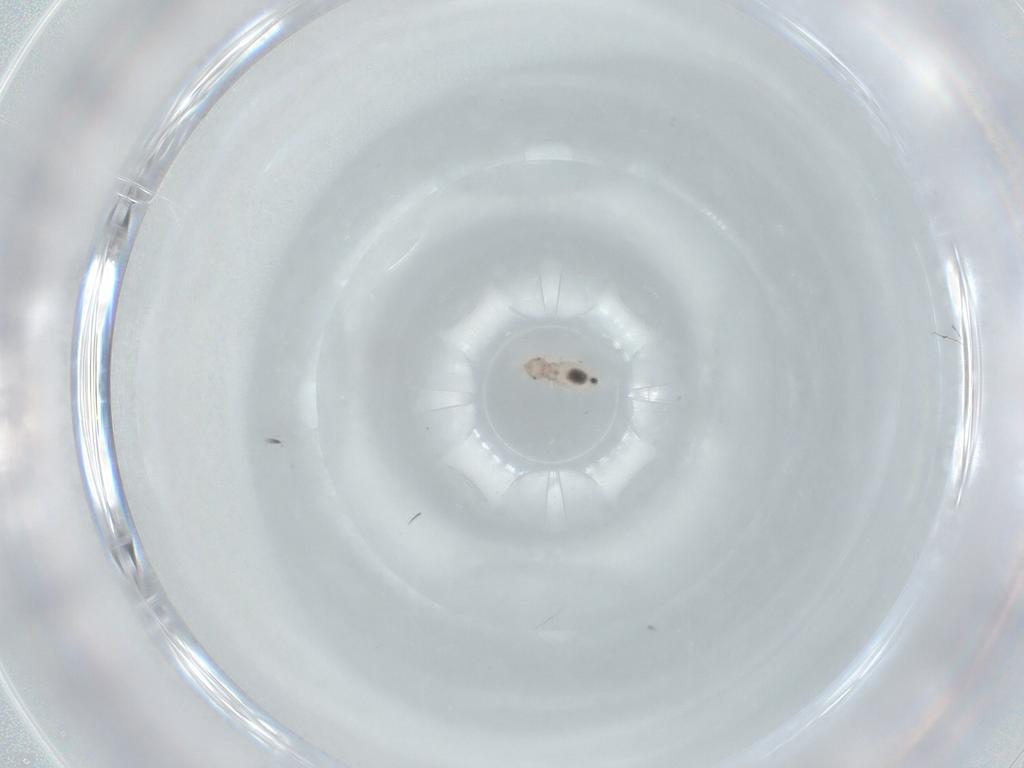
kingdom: Animalia
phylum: Arthropoda
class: Insecta
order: Psocodea
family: Liposcelididae
